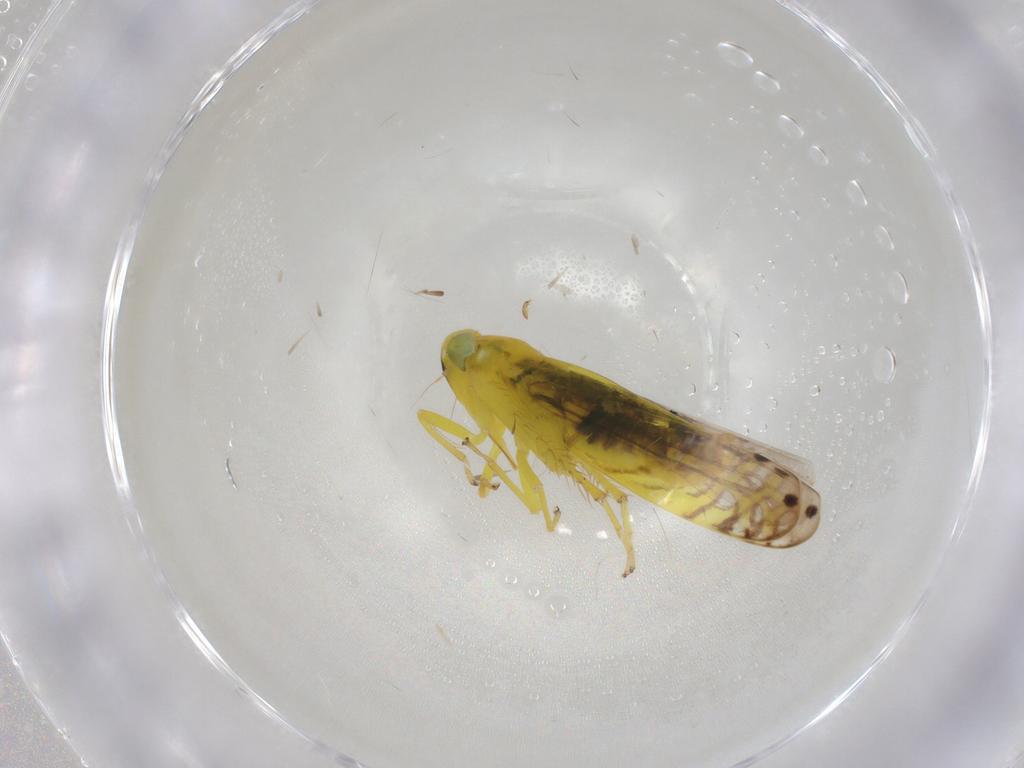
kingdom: Animalia
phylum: Arthropoda
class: Insecta
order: Hemiptera
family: Cicadellidae
